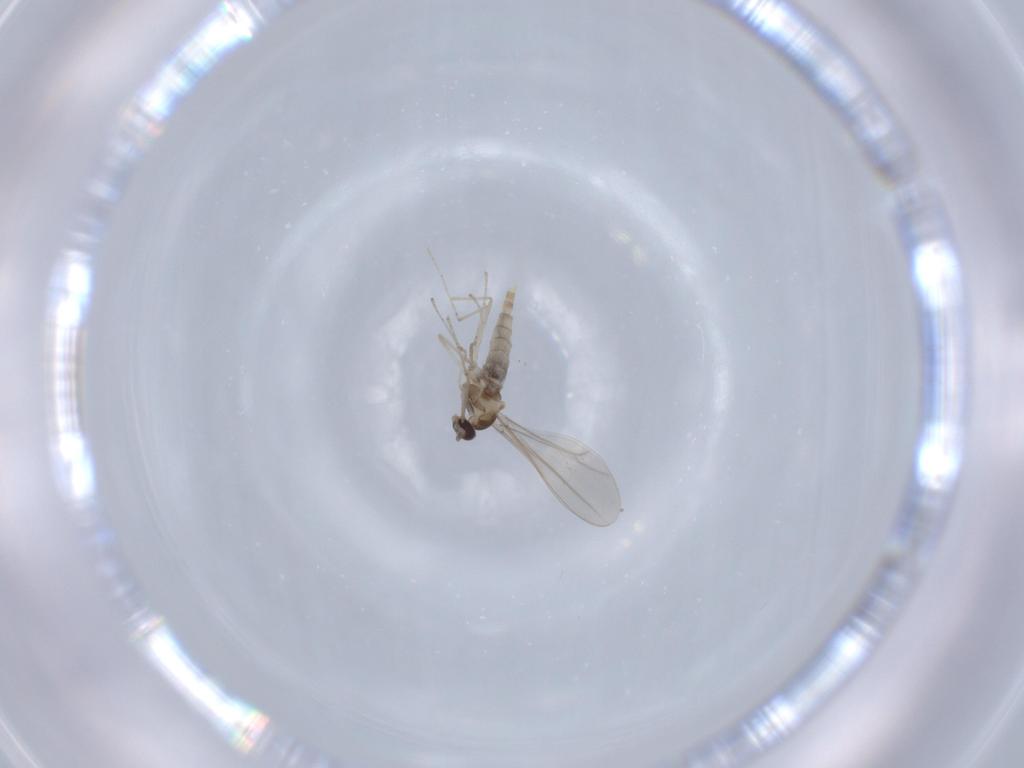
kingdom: Animalia
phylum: Arthropoda
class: Insecta
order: Diptera
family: Cecidomyiidae
